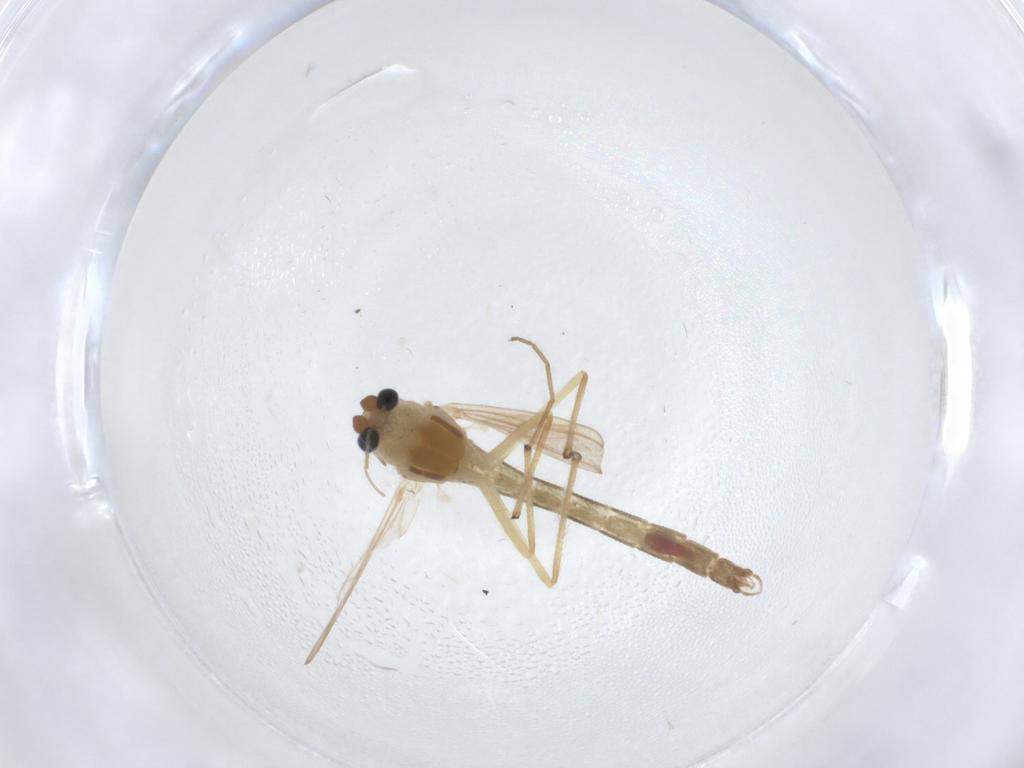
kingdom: Animalia
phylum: Arthropoda
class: Insecta
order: Diptera
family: Chironomidae
